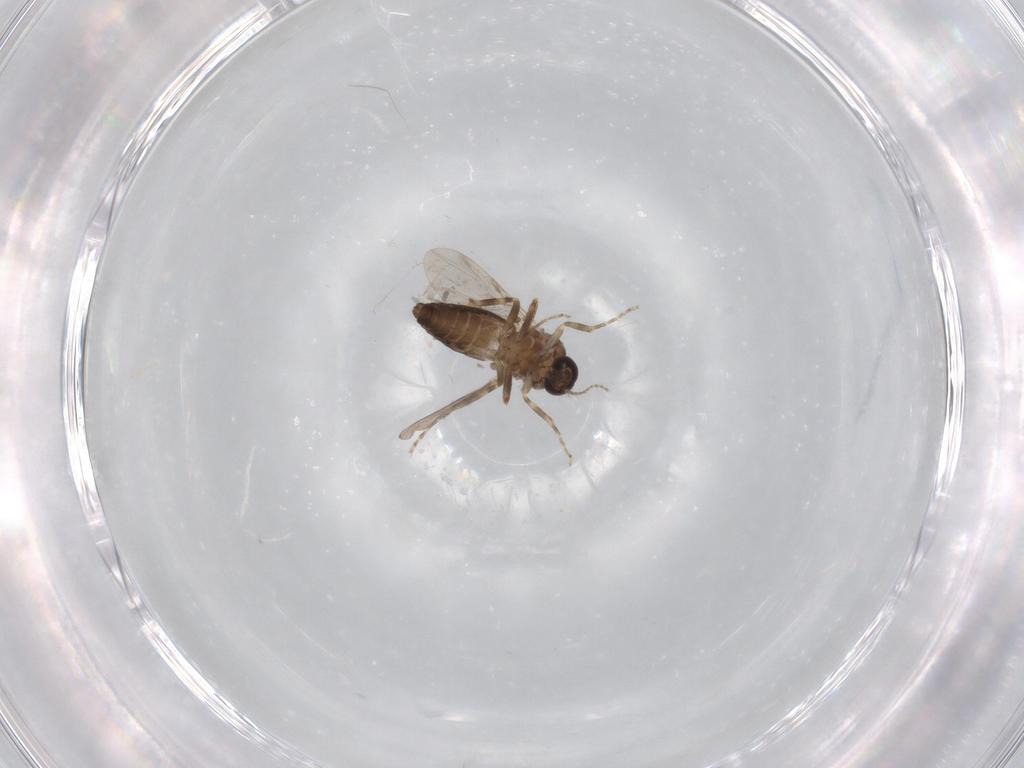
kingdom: Animalia
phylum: Arthropoda
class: Insecta
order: Diptera
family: Ceratopogonidae
